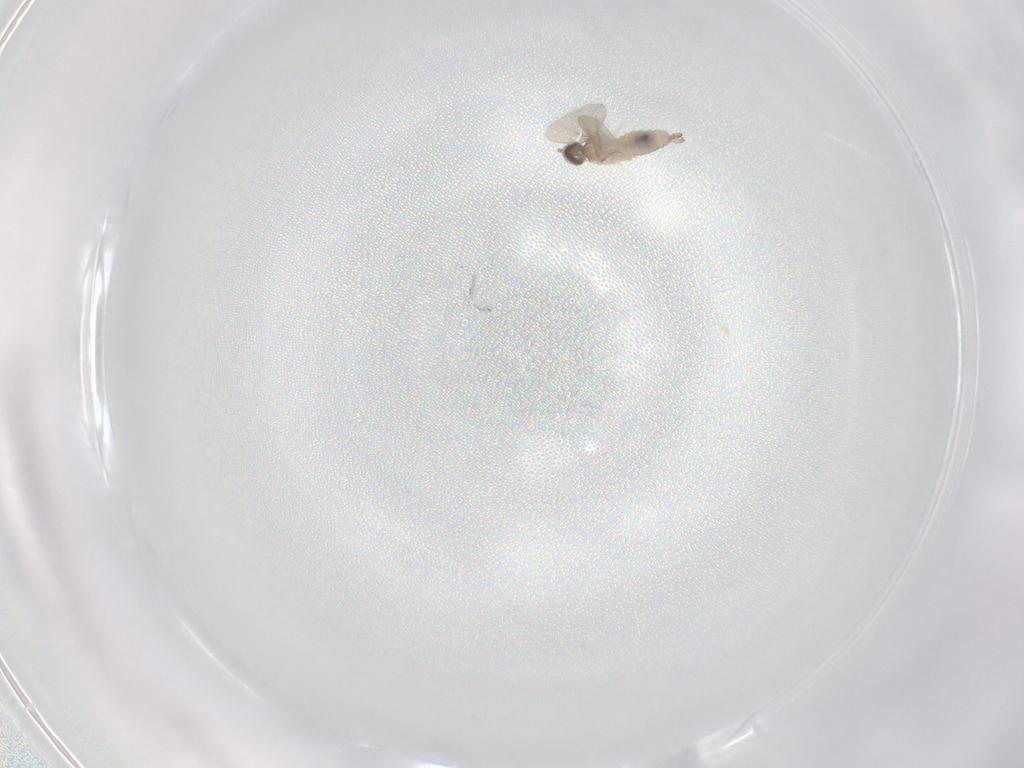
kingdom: Animalia
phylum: Arthropoda
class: Insecta
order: Diptera
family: Cecidomyiidae
